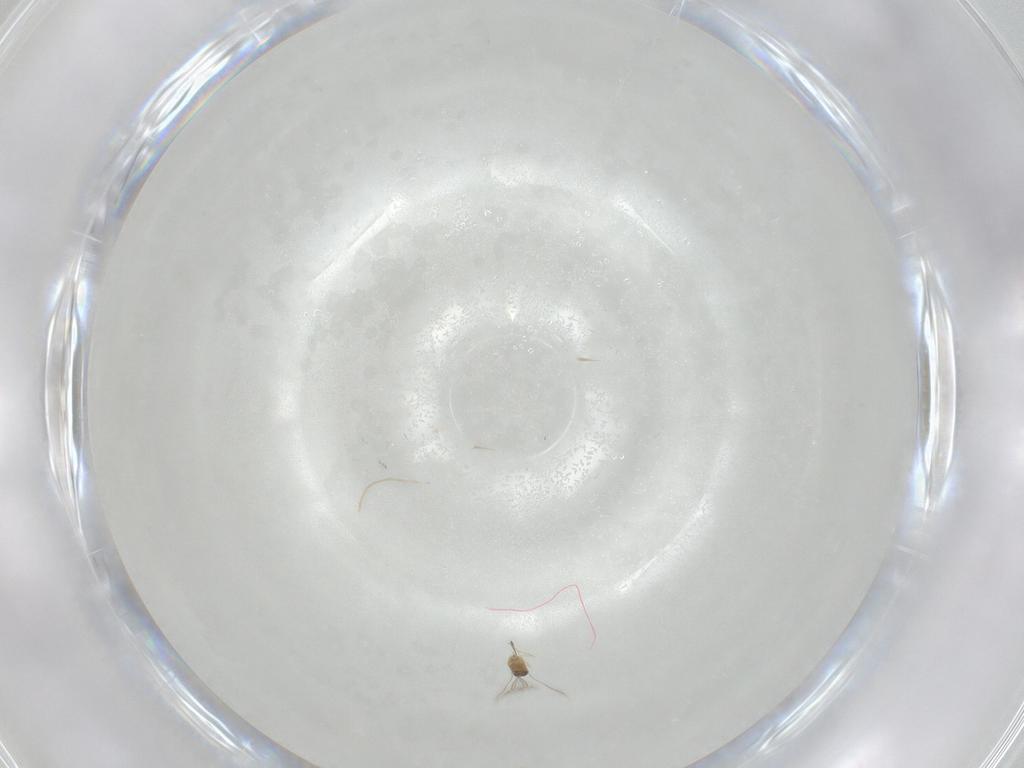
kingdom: Animalia
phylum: Arthropoda
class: Insecta
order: Hymenoptera
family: Mymaridae
